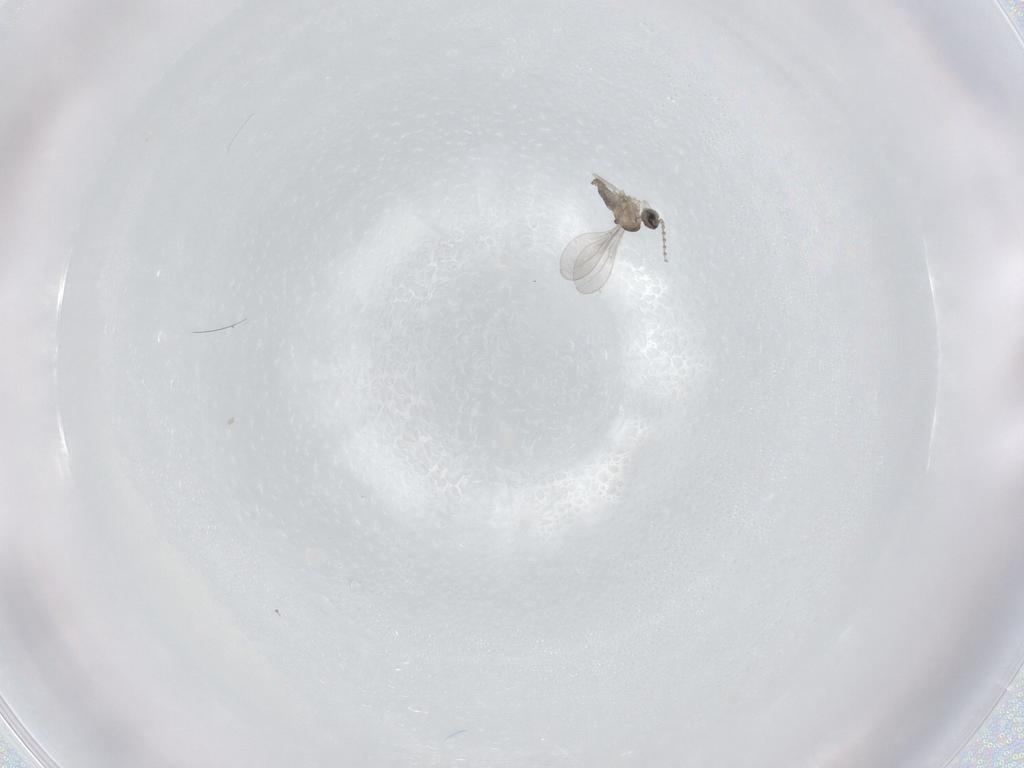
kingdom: Animalia
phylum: Arthropoda
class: Insecta
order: Diptera
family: Cecidomyiidae
